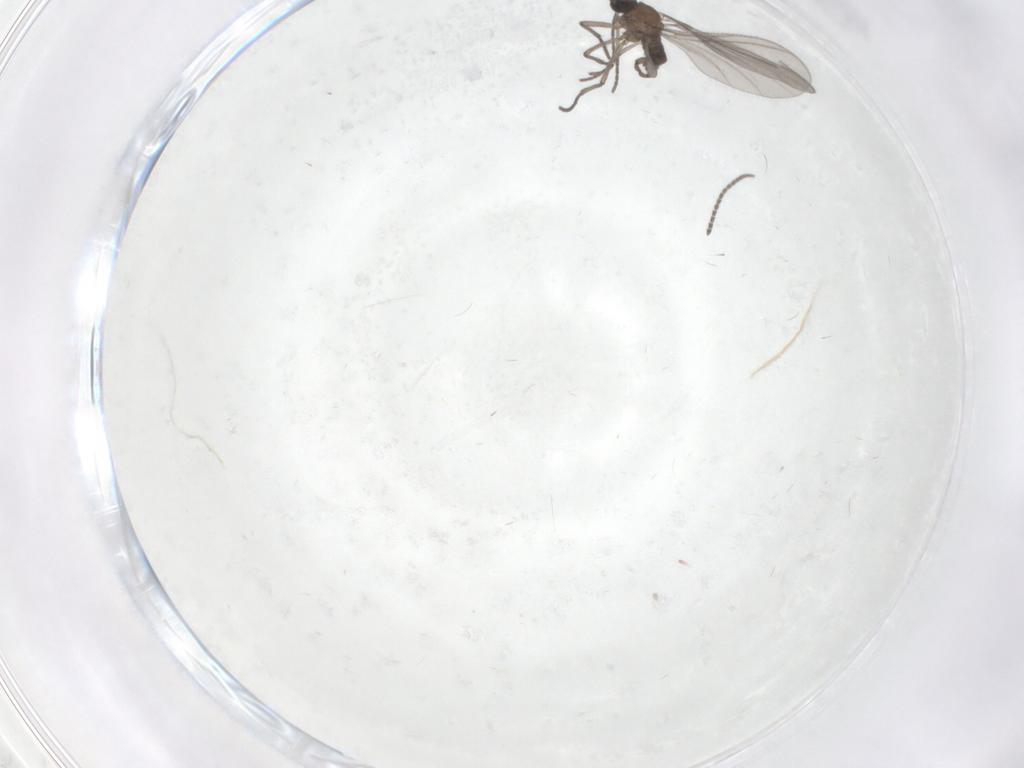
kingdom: Animalia
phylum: Arthropoda
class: Insecta
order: Diptera
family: Sciaridae
